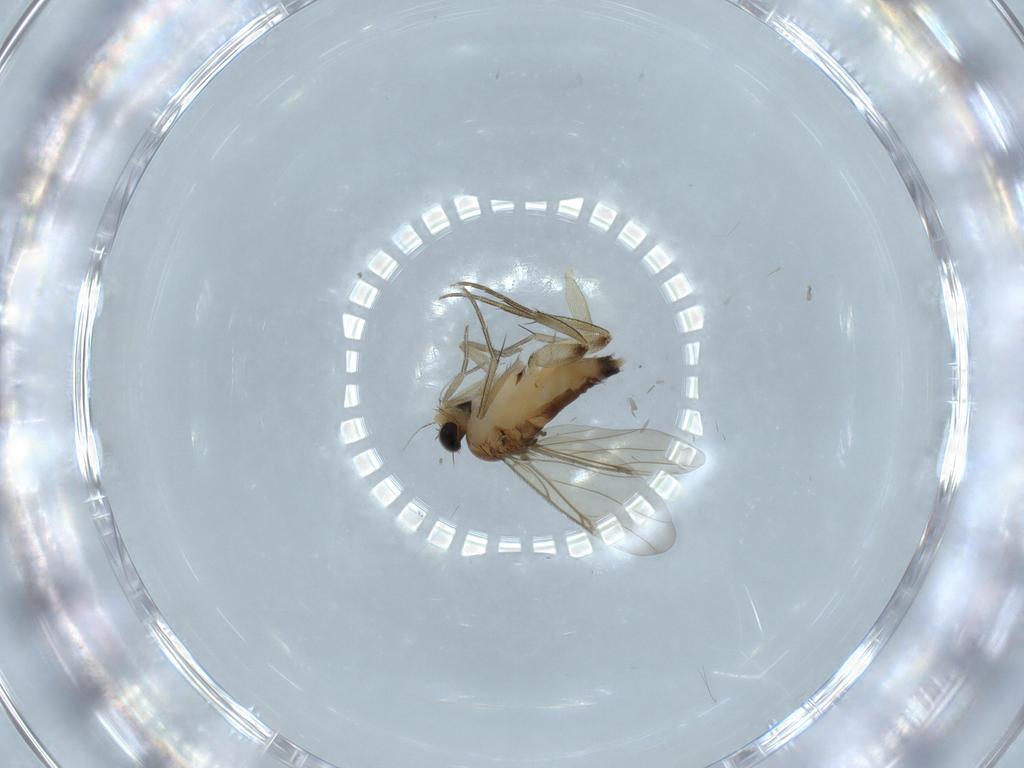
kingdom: Animalia
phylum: Arthropoda
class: Insecta
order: Diptera
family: Phoridae
